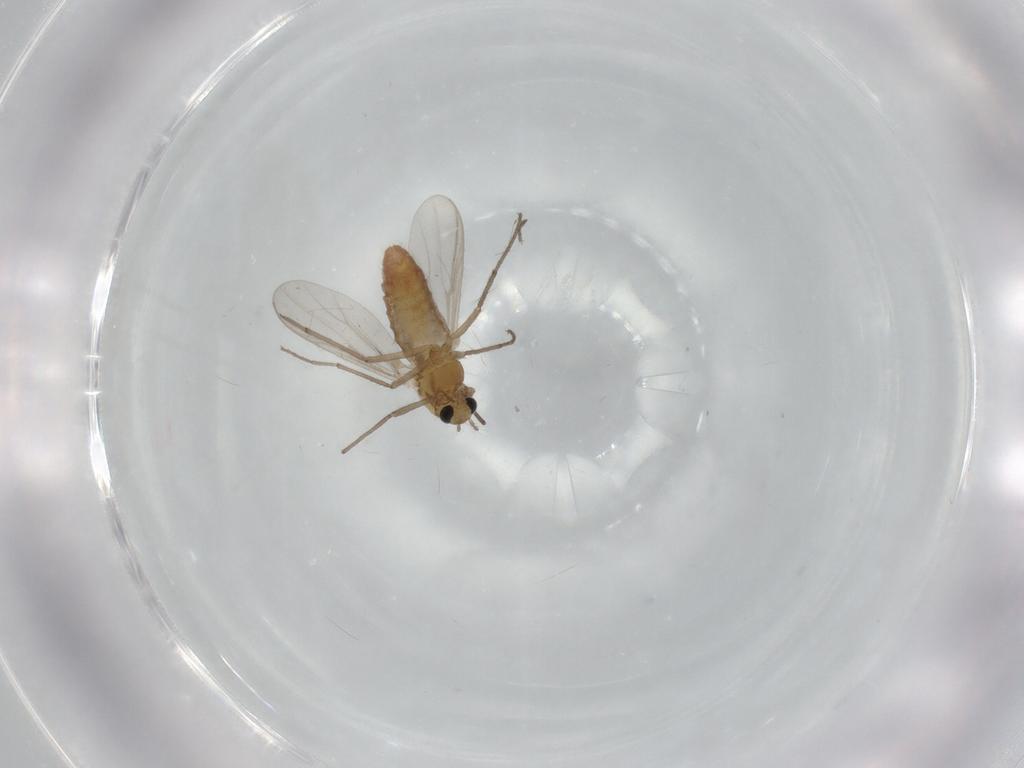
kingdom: Animalia
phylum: Arthropoda
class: Insecta
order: Diptera
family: Chironomidae
